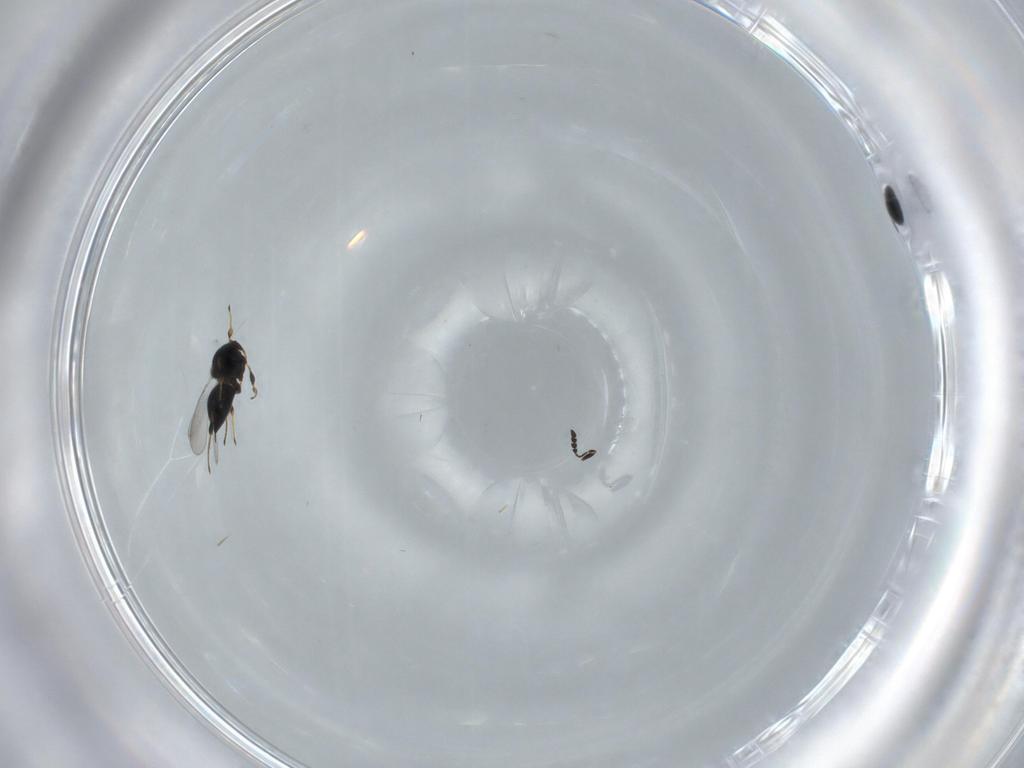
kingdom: Animalia
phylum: Arthropoda
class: Insecta
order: Hymenoptera
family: Platygastridae
